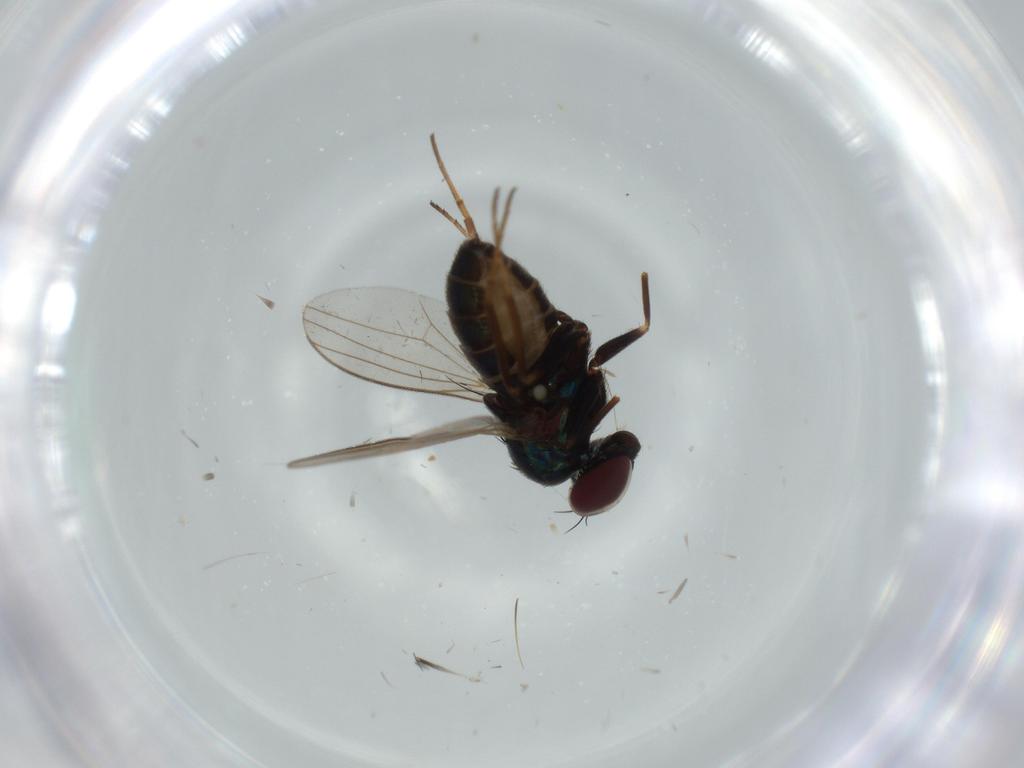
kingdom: Animalia
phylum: Arthropoda
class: Insecta
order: Diptera
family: Dolichopodidae
